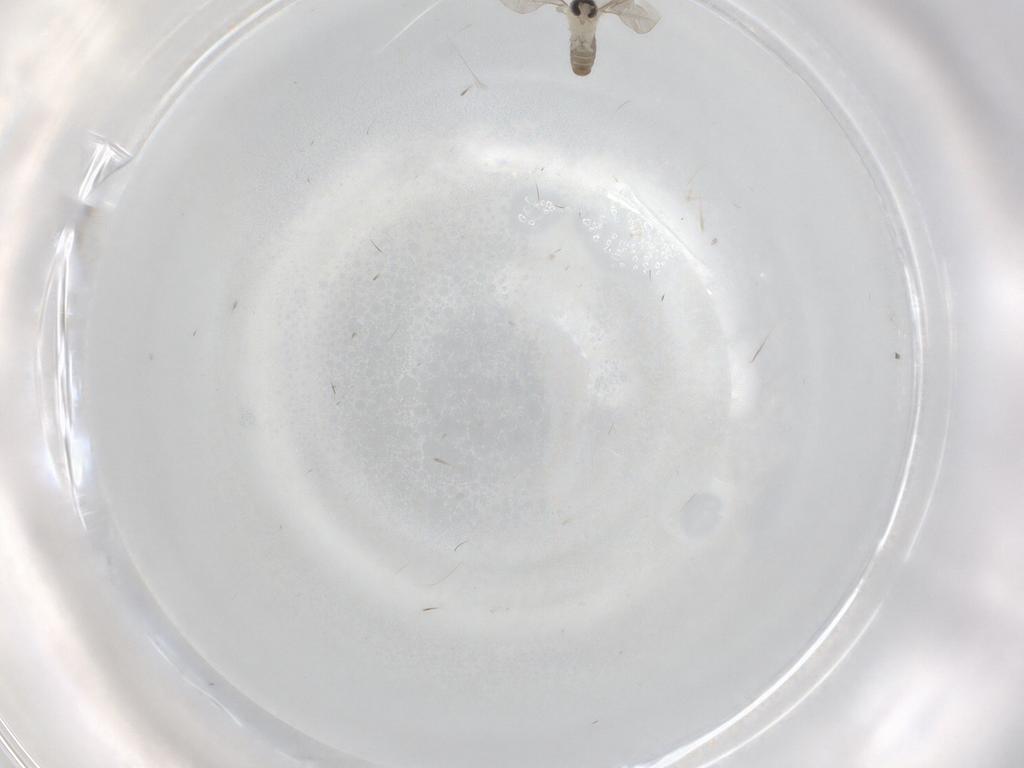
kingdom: Animalia
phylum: Arthropoda
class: Insecta
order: Diptera
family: Cecidomyiidae
